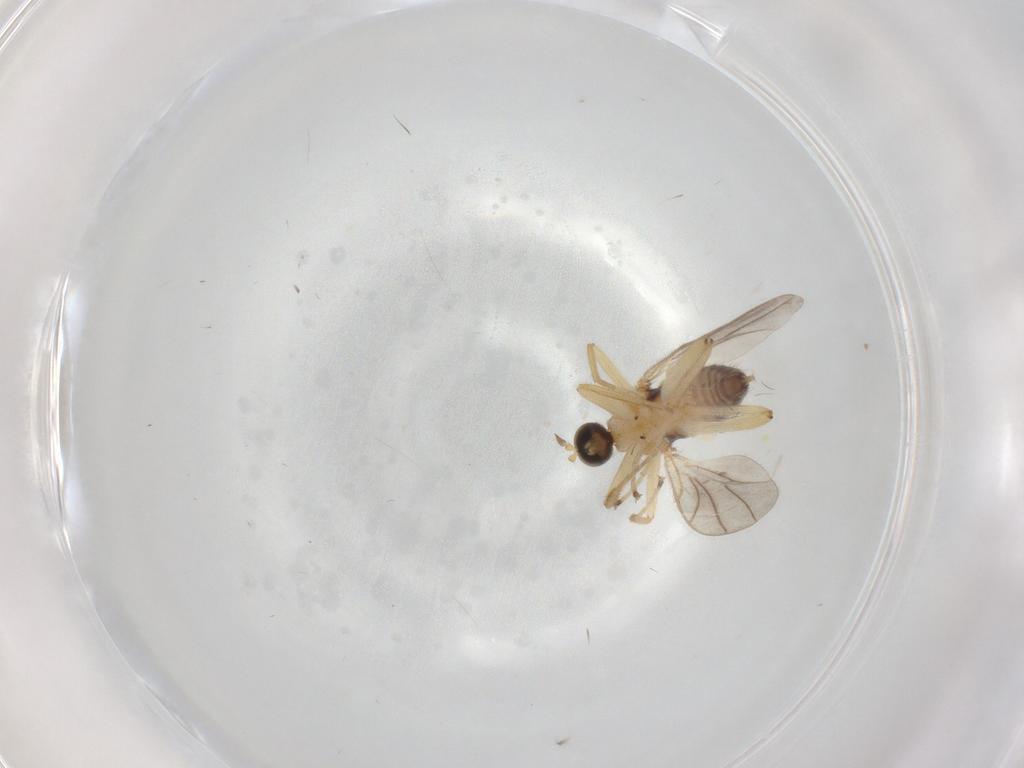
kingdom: Animalia
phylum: Arthropoda
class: Insecta
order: Diptera
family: Hybotidae
